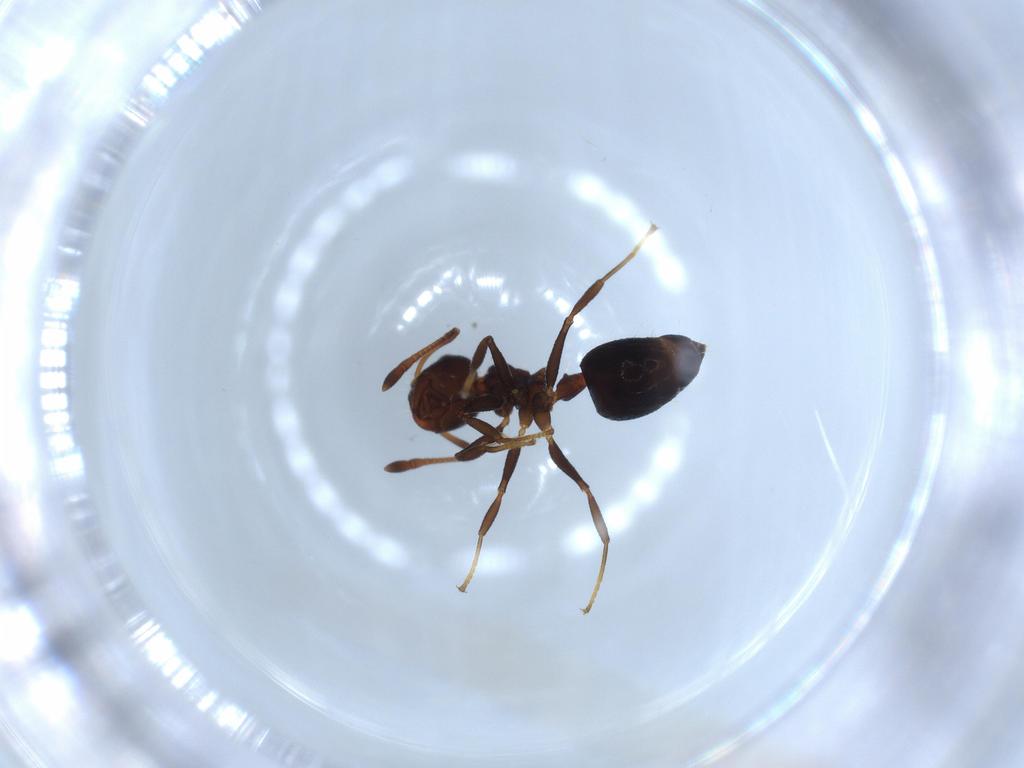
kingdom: Animalia
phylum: Arthropoda
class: Insecta
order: Hymenoptera
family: Formicidae
